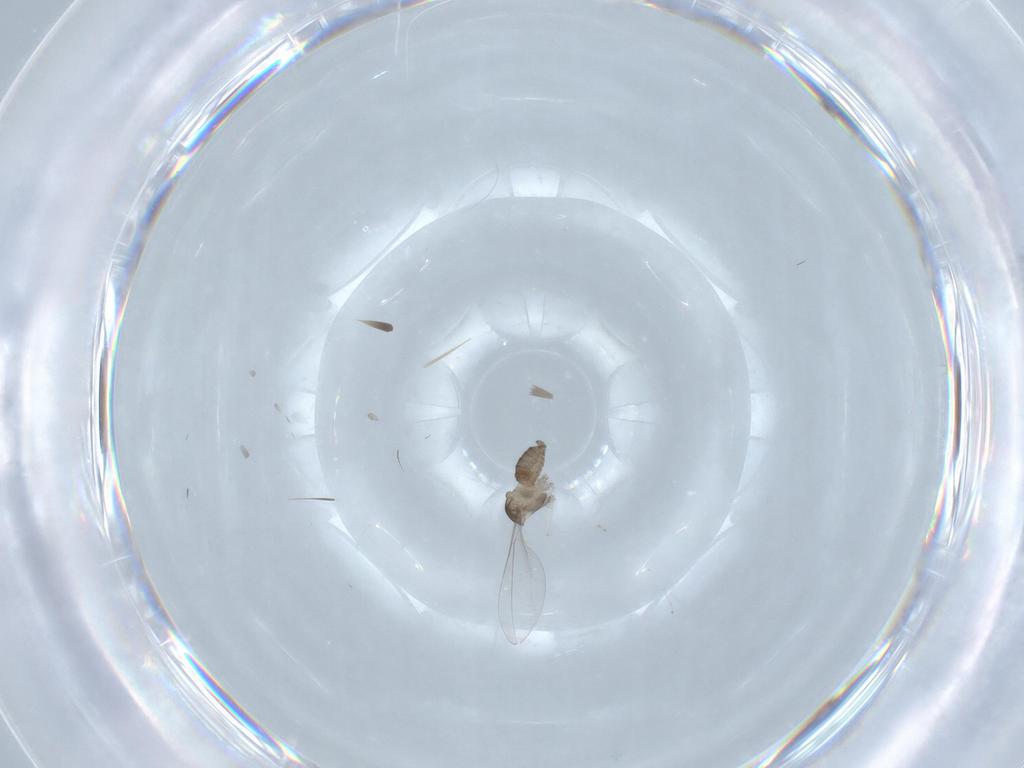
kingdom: Animalia
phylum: Arthropoda
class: Insecta
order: Diptera
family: Cecidomyiidae
